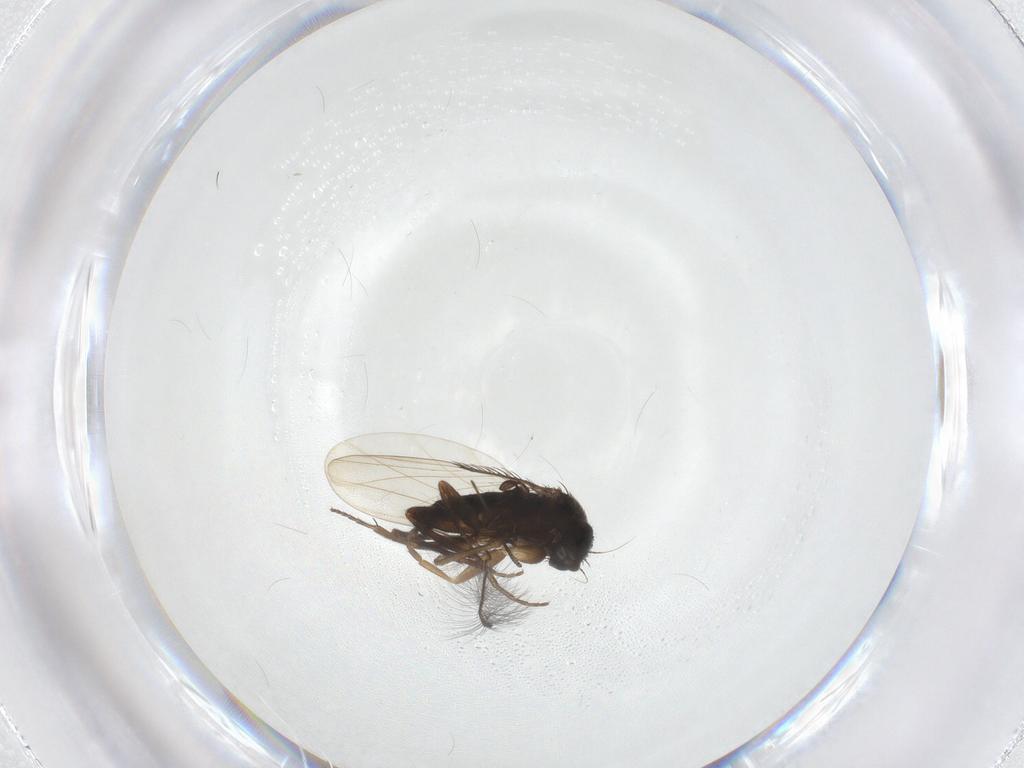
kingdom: Animalia
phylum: Arthropoda
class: Insecta
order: Diptera
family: Phoridae
